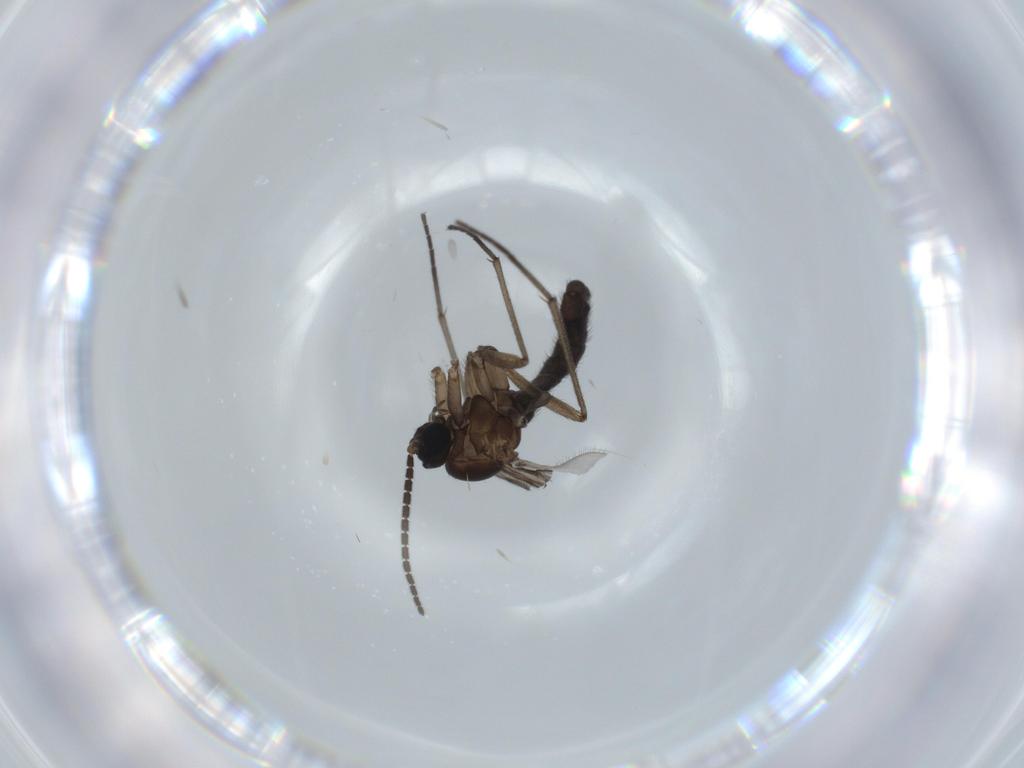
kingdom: Animalia
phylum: Arthropoda
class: Insecta
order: Diptera
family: Sciaridae
